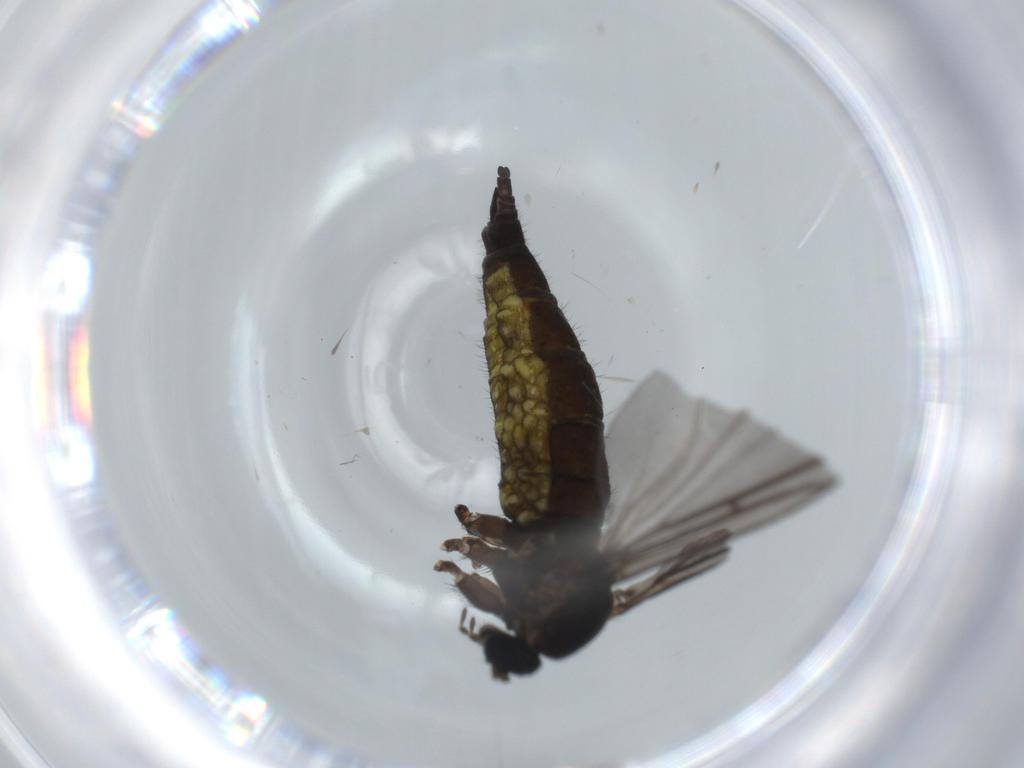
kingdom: Animalia
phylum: Arthropoda
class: Insecta
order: Diptera
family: Sciaridae
